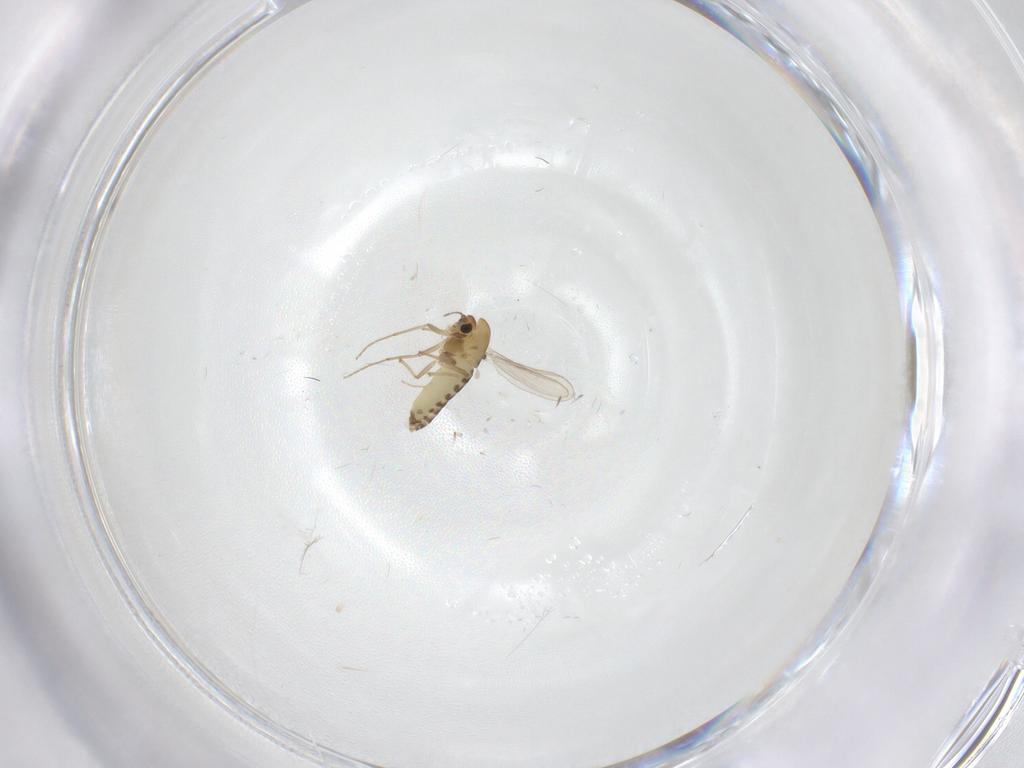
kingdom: Animalia
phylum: Arthropoda
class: Insecta
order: Diptera
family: Chironomidae
